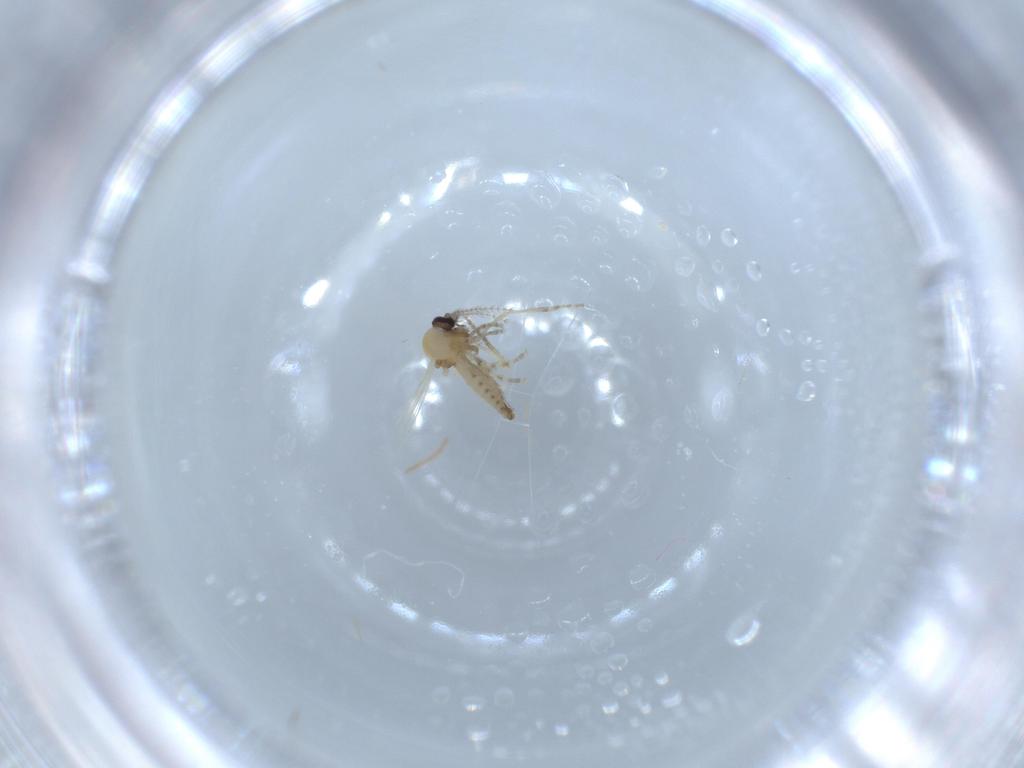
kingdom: Animalia
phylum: Arthropoda
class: Insecta
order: Diptera
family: Ceratopogonidae
